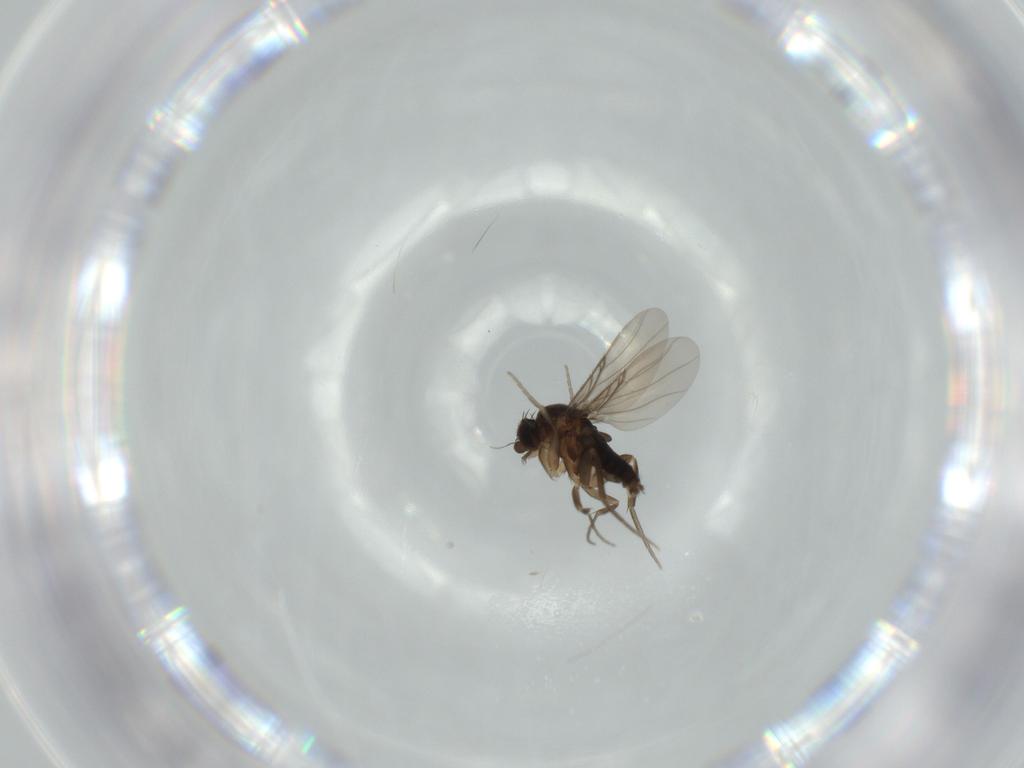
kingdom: Animalia
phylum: Arthropoda
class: Insecta
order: Diptera
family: Phoridae
